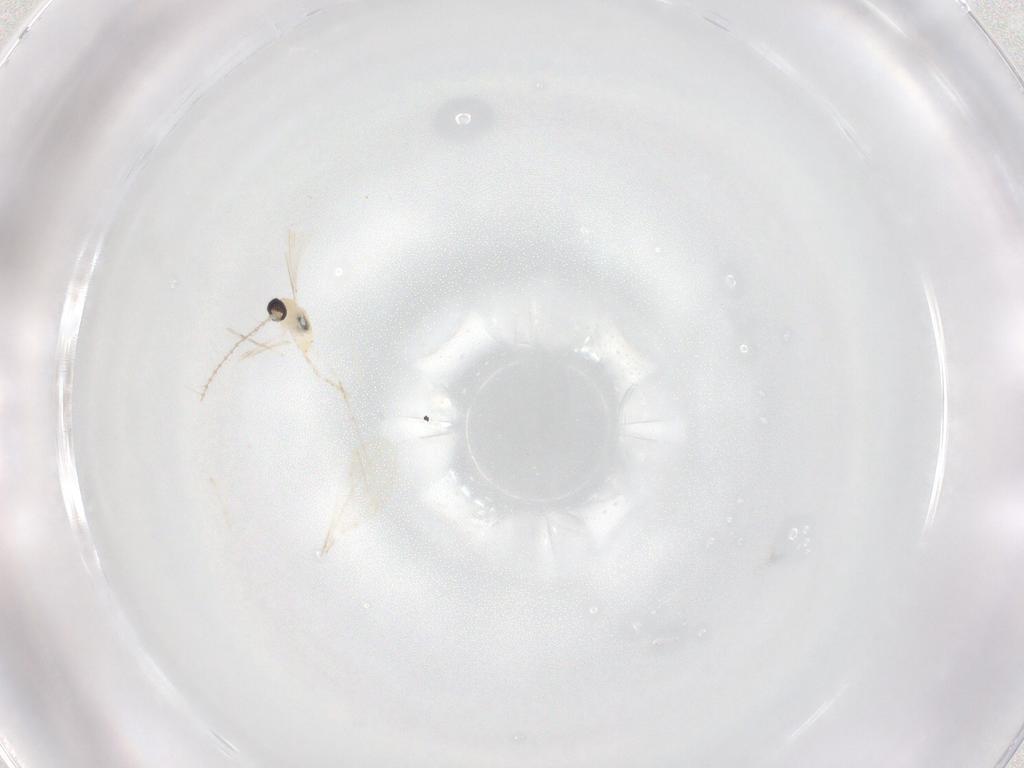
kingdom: Animalia
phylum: Arthropoda
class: Insecta
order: Diptera
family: Cecidomyiidae
